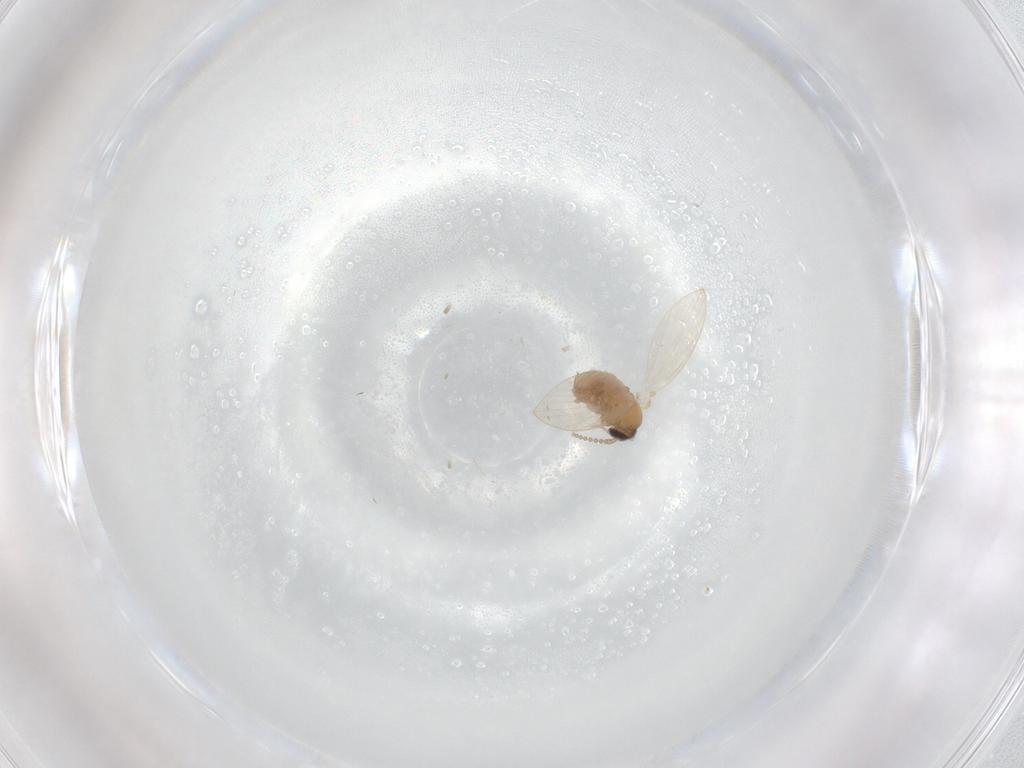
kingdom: Animalia
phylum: Arthropoda
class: Insecta
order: Diptera
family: Psychodidae
